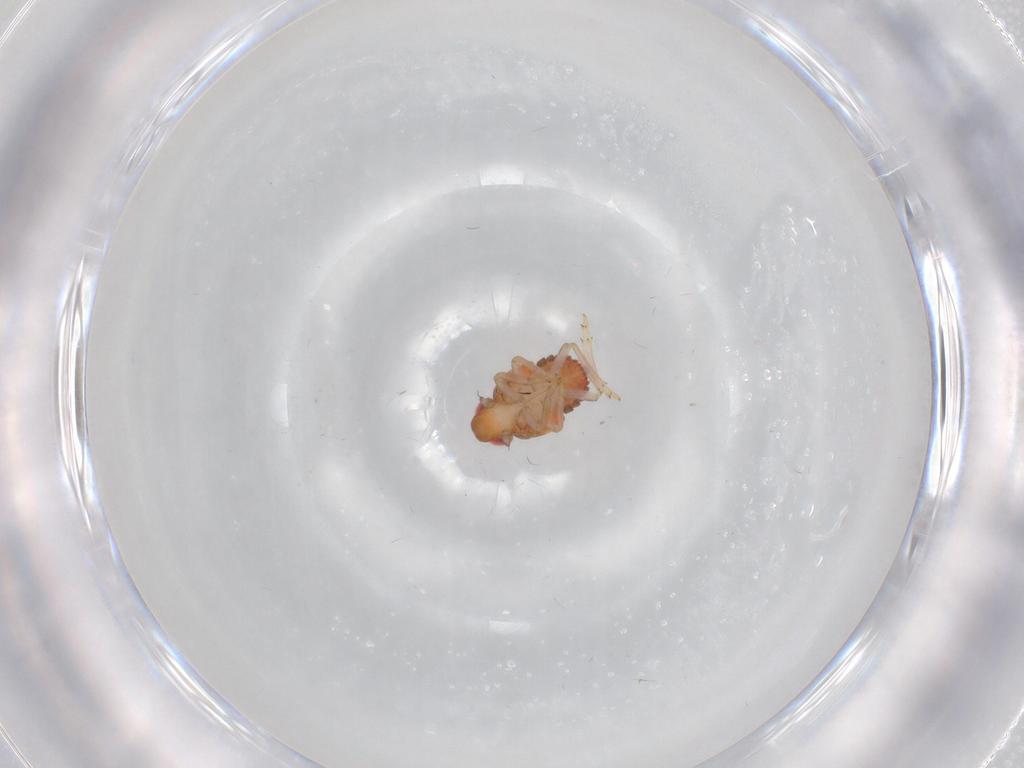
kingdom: Animalia
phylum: Arthropoda
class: Insecta
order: Hemiptera
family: Issidae
